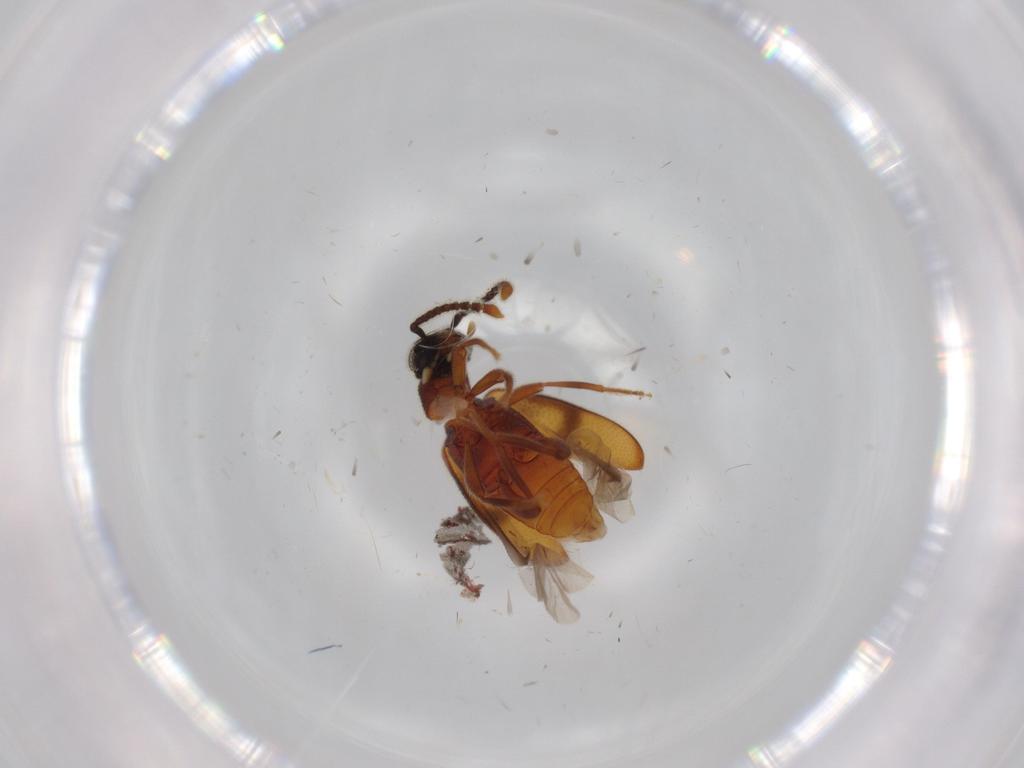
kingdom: Animalia
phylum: Arthropoda
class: Insecta
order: Coleoptera
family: Aderidae
